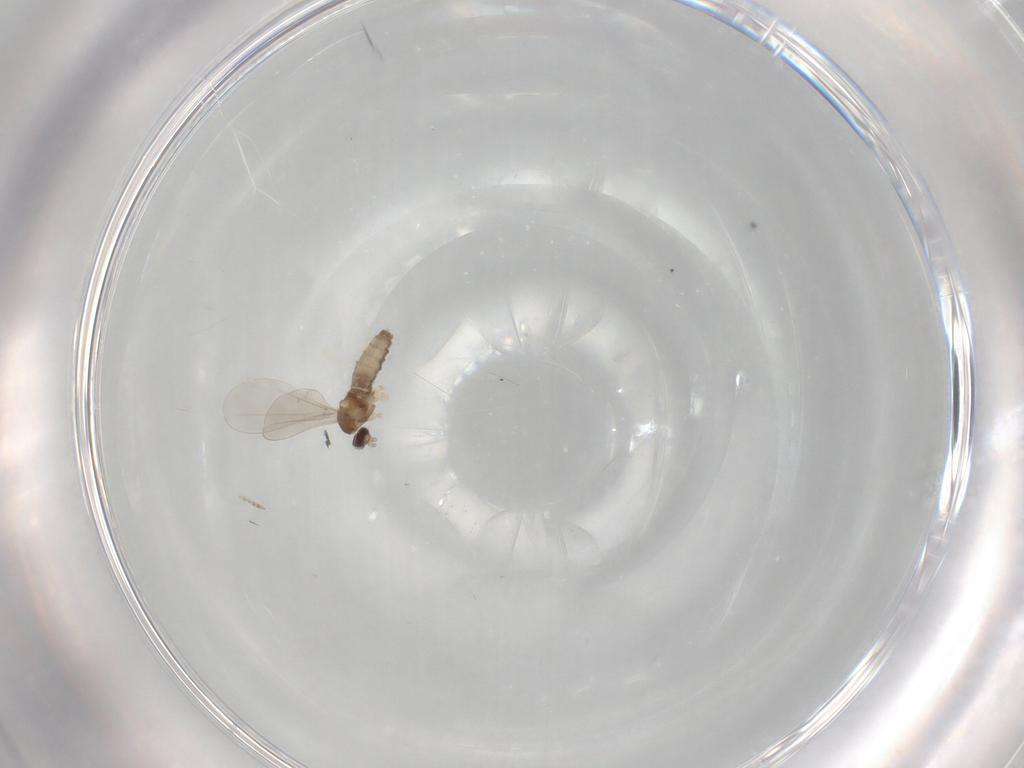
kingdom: Animalia
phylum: Arthropoda
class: Insecta
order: Diptera
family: Cecidomyiidae
